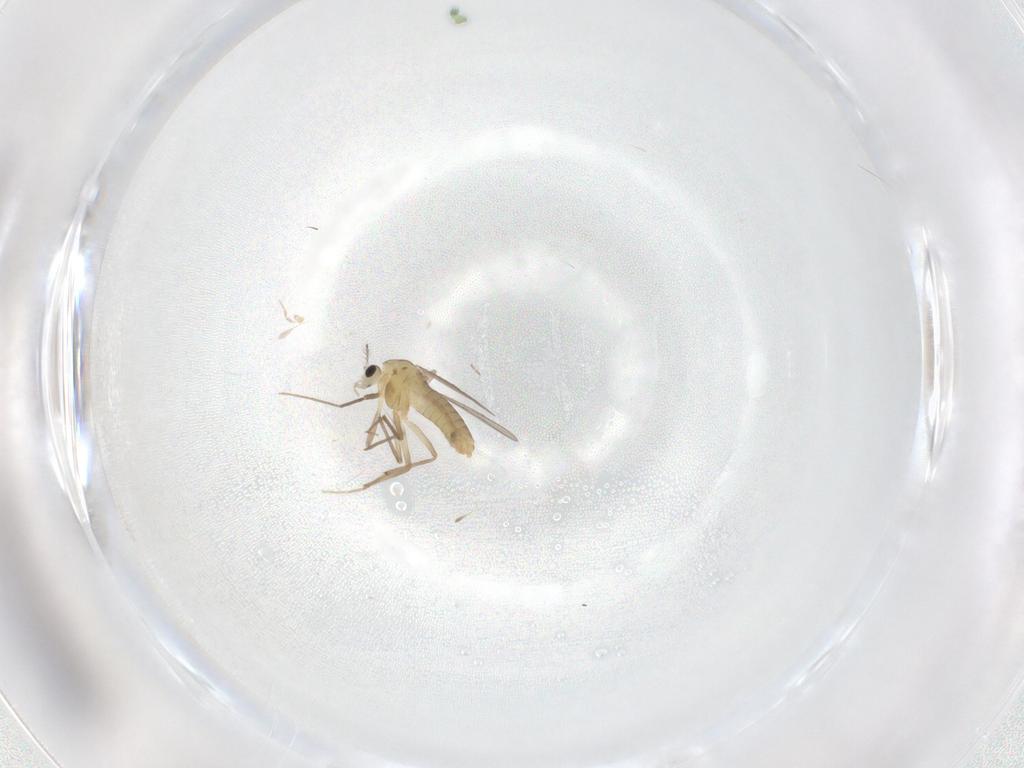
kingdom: Animalia
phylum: Arthropoda
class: Insecta
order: Diptera
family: Chironomidae
